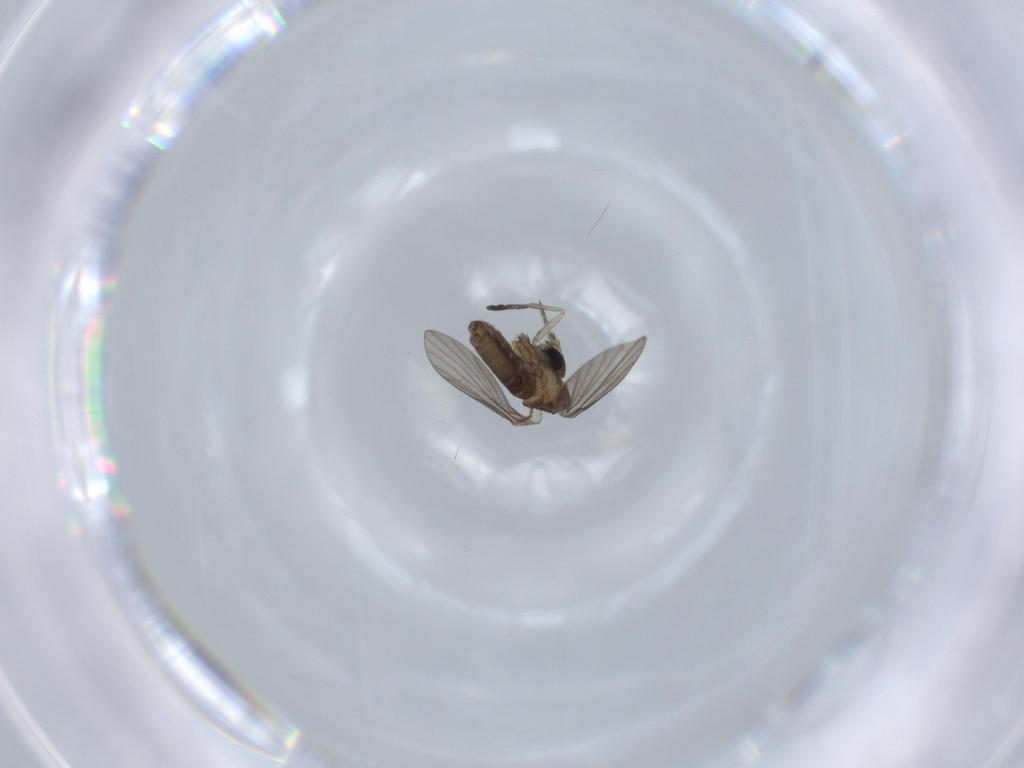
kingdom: Animalia
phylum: Arthropoda
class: Insecta
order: Diptera
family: Psychodidae
